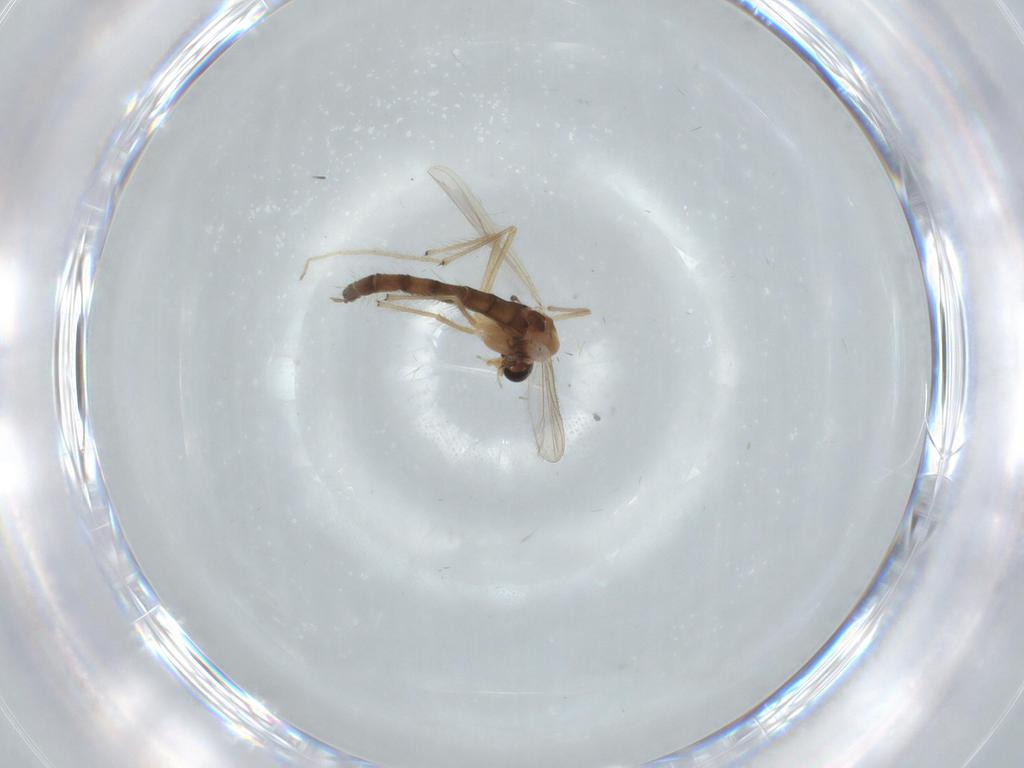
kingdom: Animalia
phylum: Arthropoda
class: Insecta
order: Diptera
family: Chironomidae
